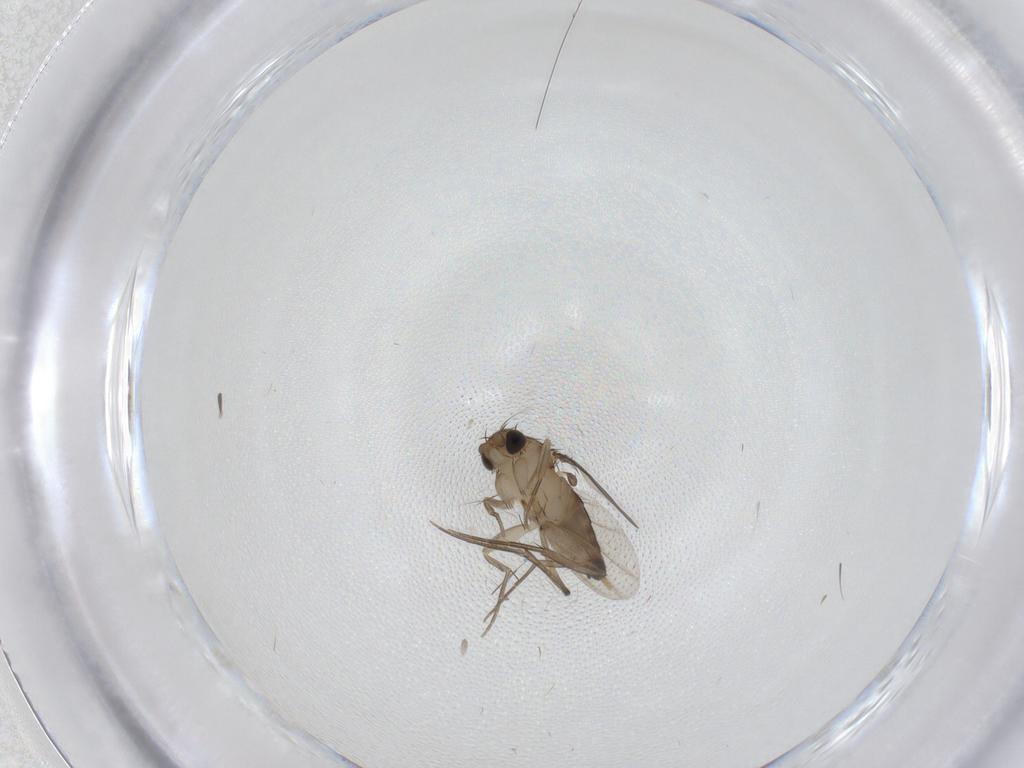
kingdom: Animalia
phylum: Arthropoda
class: Insecta
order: Diptera
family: Phoridae
